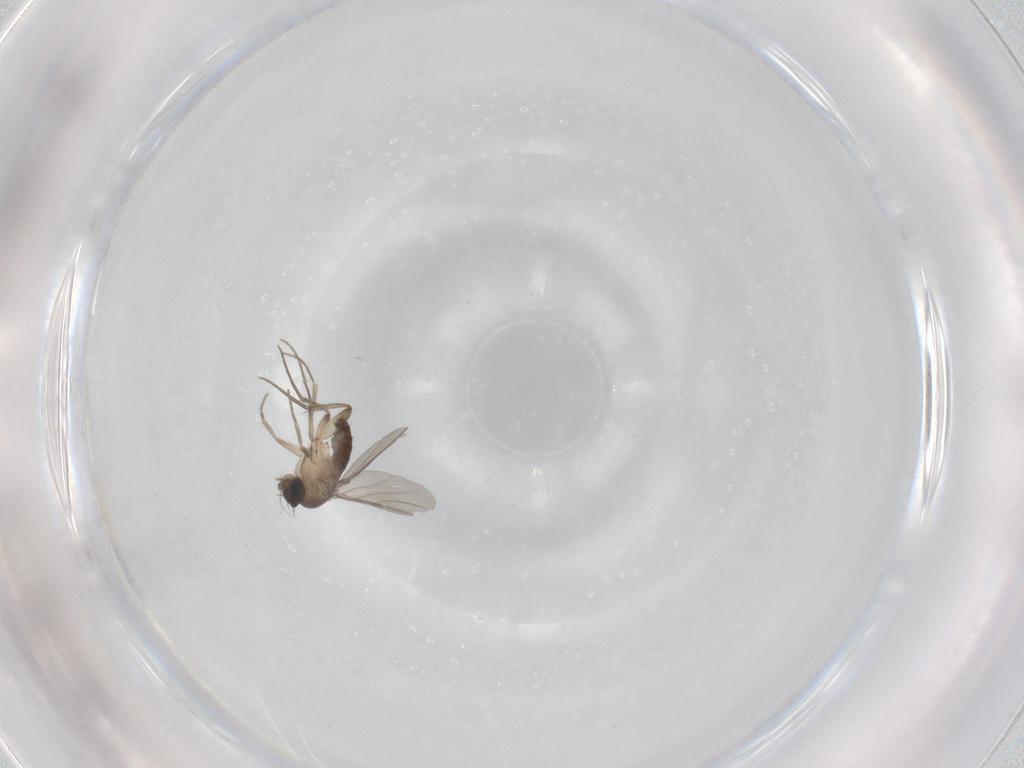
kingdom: Animalia
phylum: Arthropoda
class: Insecta
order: Diptera
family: Phoridae
